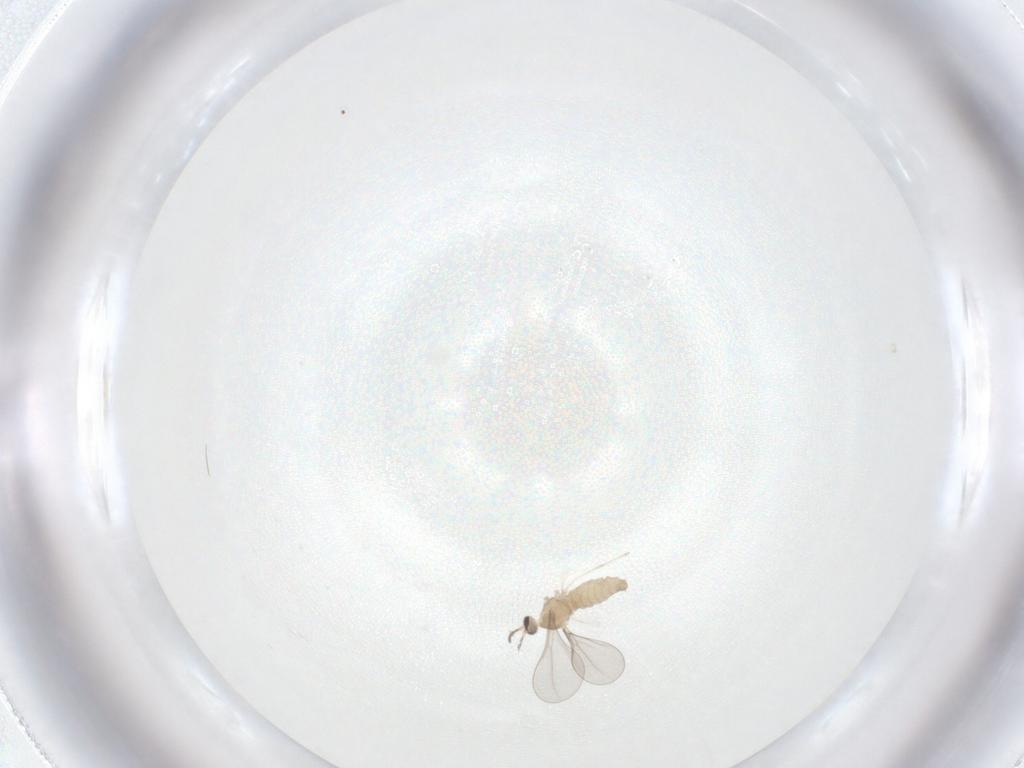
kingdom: Animalia
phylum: Arthropoda
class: Insecta
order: Diptera
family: Cecidomyiidae
